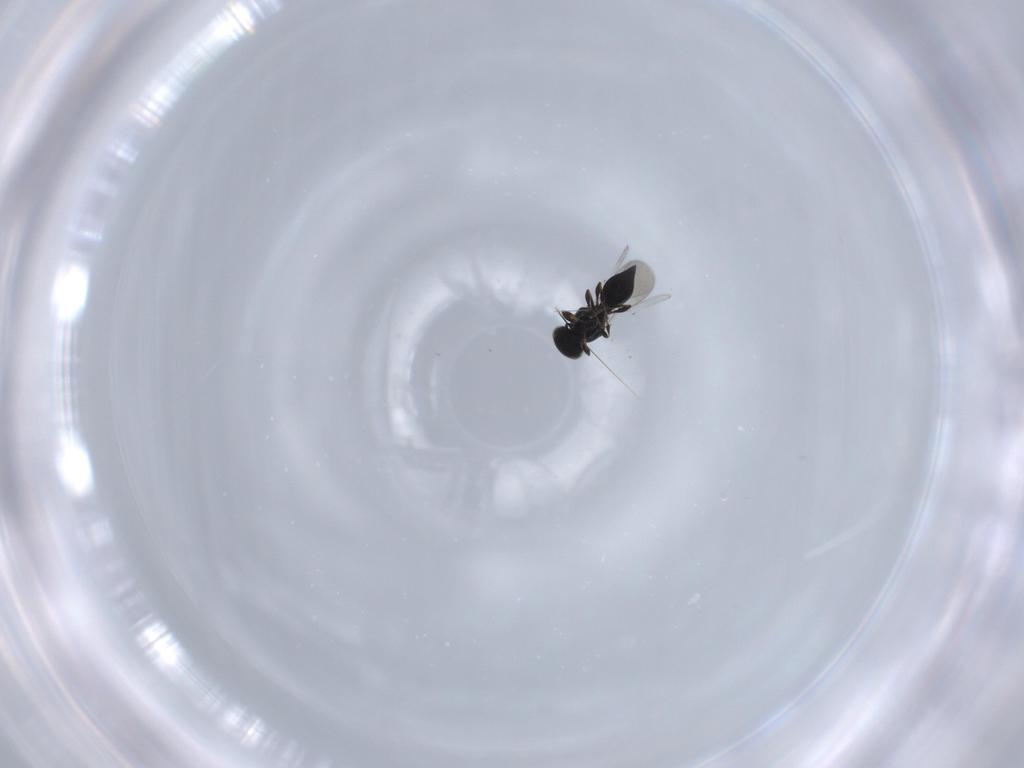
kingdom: Animalia
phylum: Arthropoda
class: Insecta
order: Hymenoptera
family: Platygastridae
